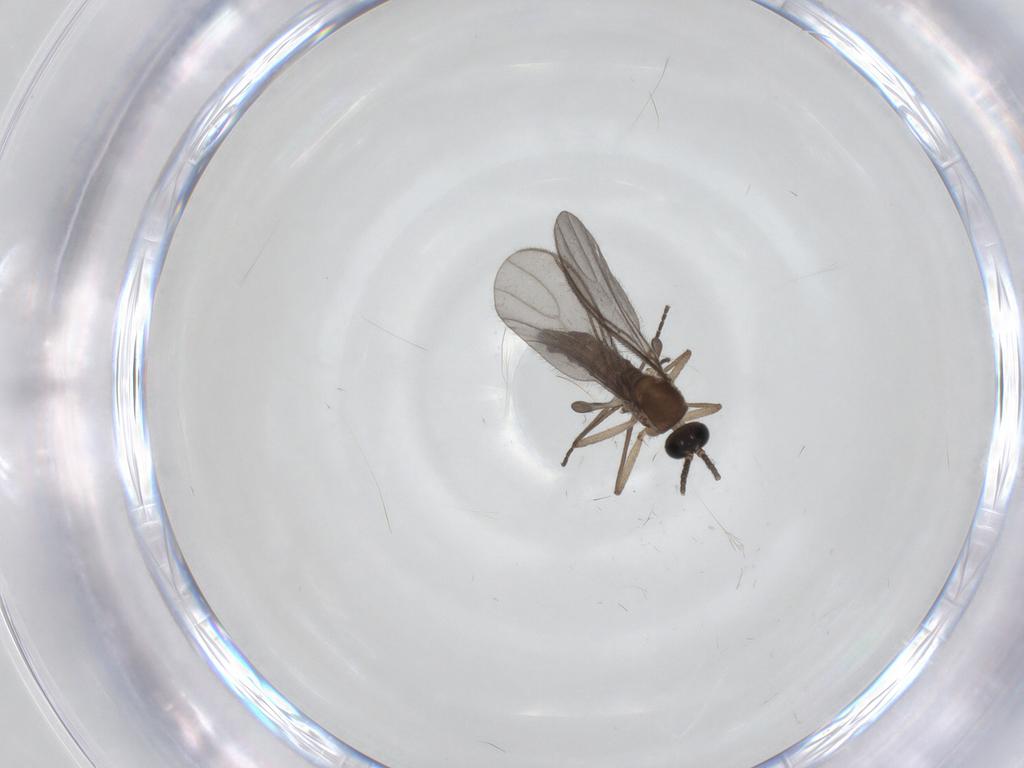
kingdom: Animalia
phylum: Arthropoda
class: Insecta
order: Diptera
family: Sciaridae
